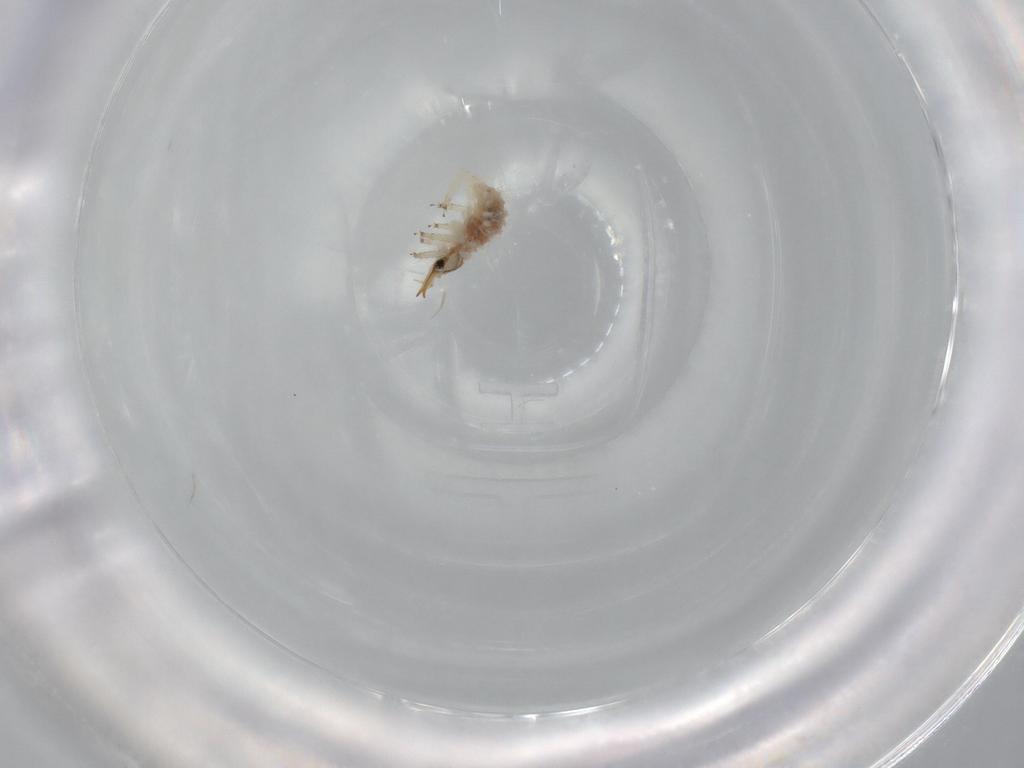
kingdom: Animalia
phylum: Arthropoda
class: Insecta
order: Neuroptera
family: Chrysopidae
